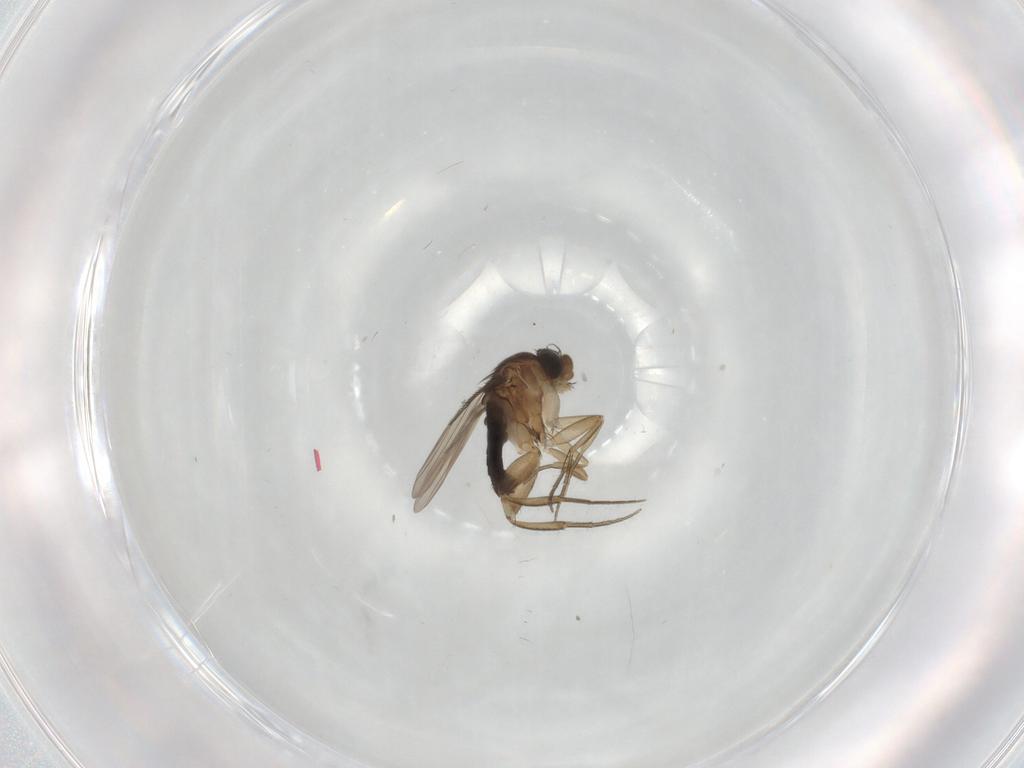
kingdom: Animalia
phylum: Arthropoda
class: Insecta
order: Diptera
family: Phoridae
